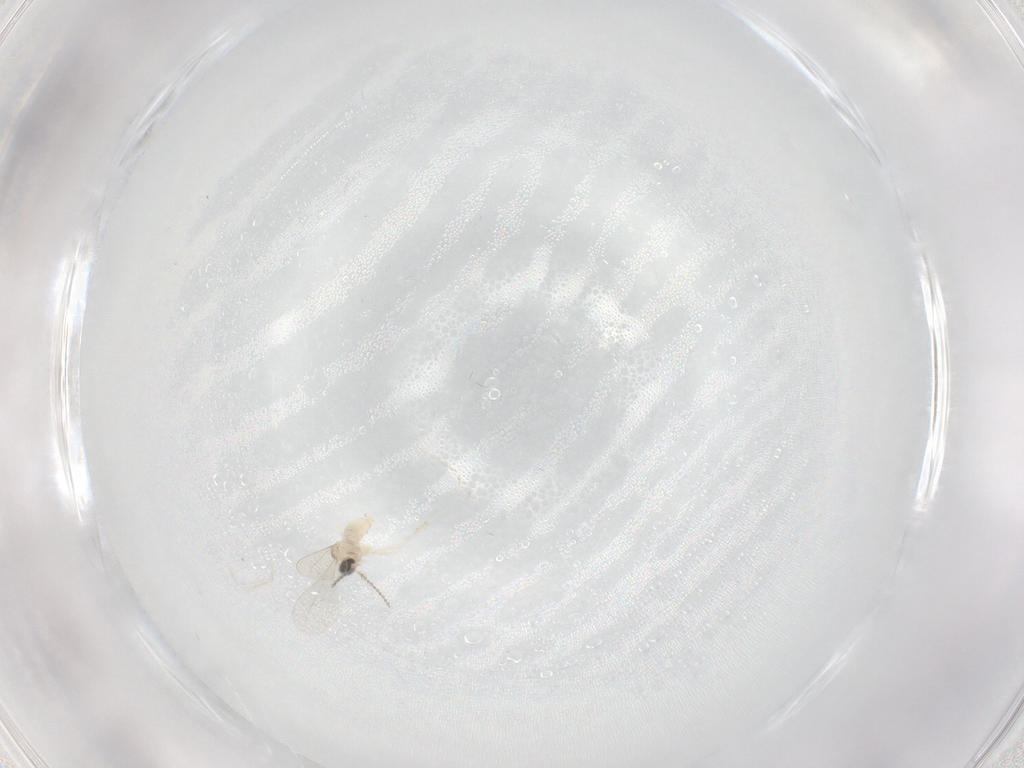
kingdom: Animalia
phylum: Arthropoda
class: Insecta
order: Diptera
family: Cecidomyiidae
